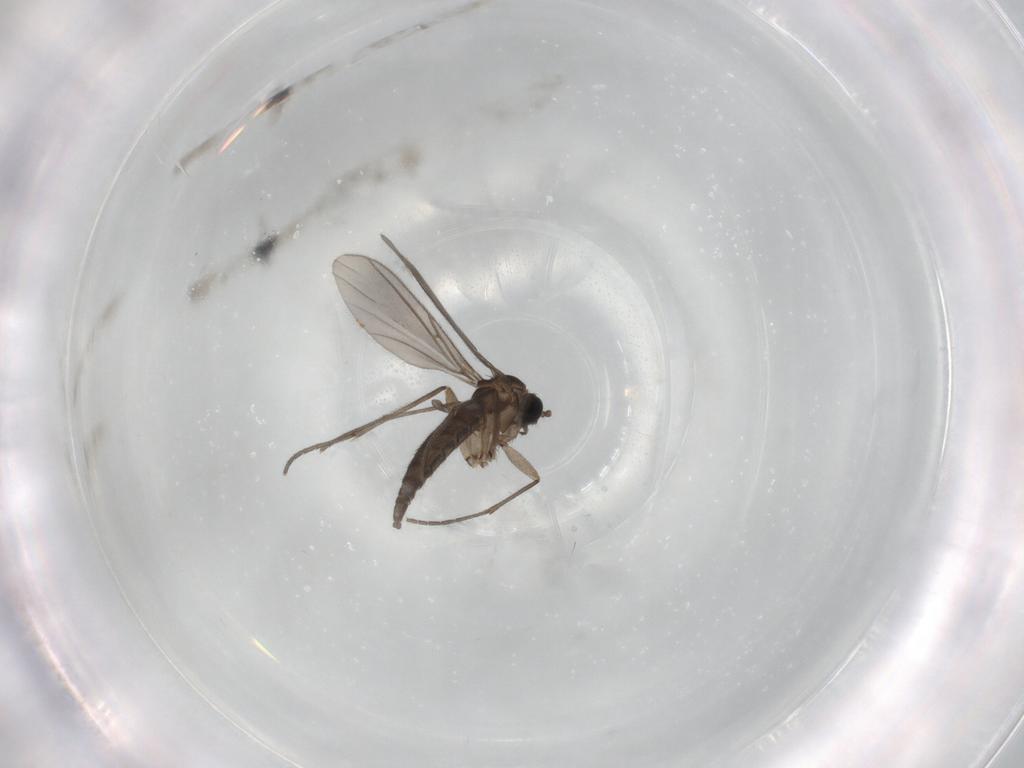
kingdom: Animalia
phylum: Arthropoda
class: Insecta
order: Diptera
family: Sciaridae
